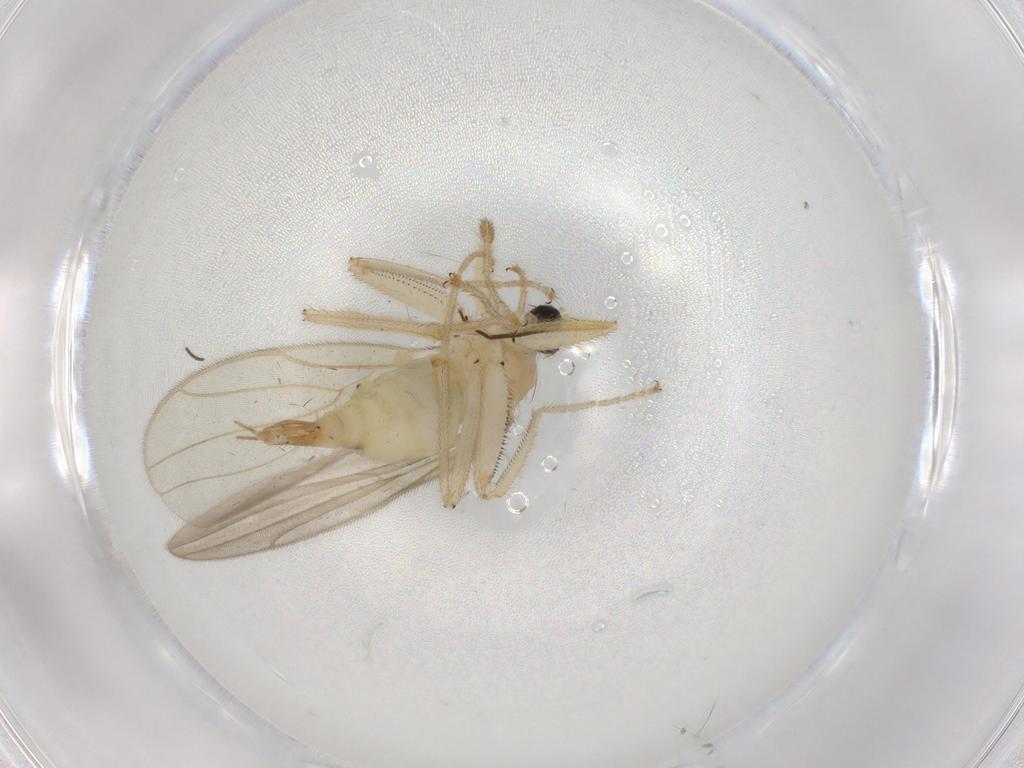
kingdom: Animalia
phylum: Arthropoda
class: Insecta
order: Diptera
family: Hybotidae
